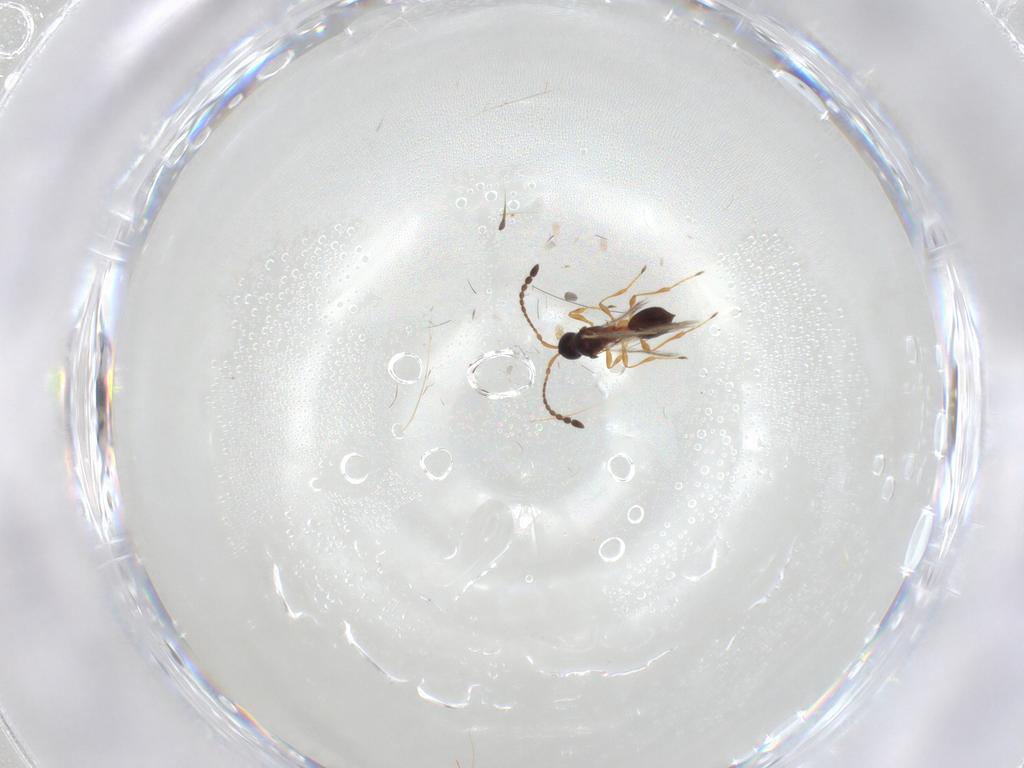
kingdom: Animalia
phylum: Arthropoda
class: Insecta
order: Hymenoptera
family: Diapriidae
